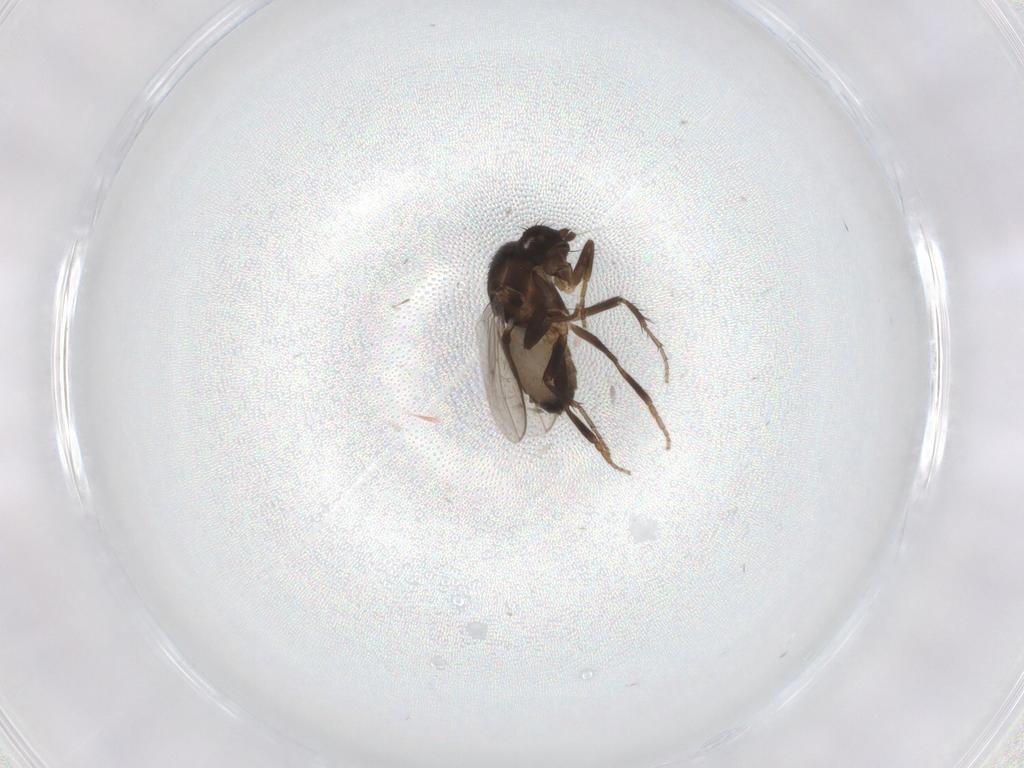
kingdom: Animalia
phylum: Arthropoda
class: Insecta
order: Diptera
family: Sphaeroceridae
